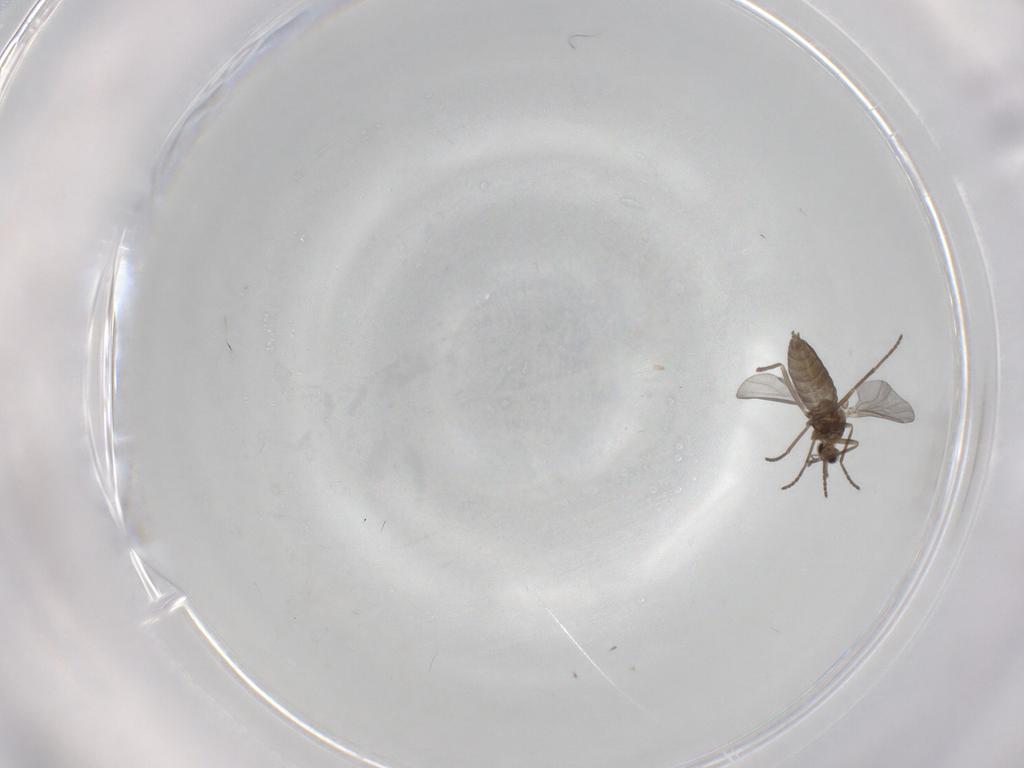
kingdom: Animalia
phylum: Arthropoda
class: Insecta
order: Diptera
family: Cecidomyiidae
